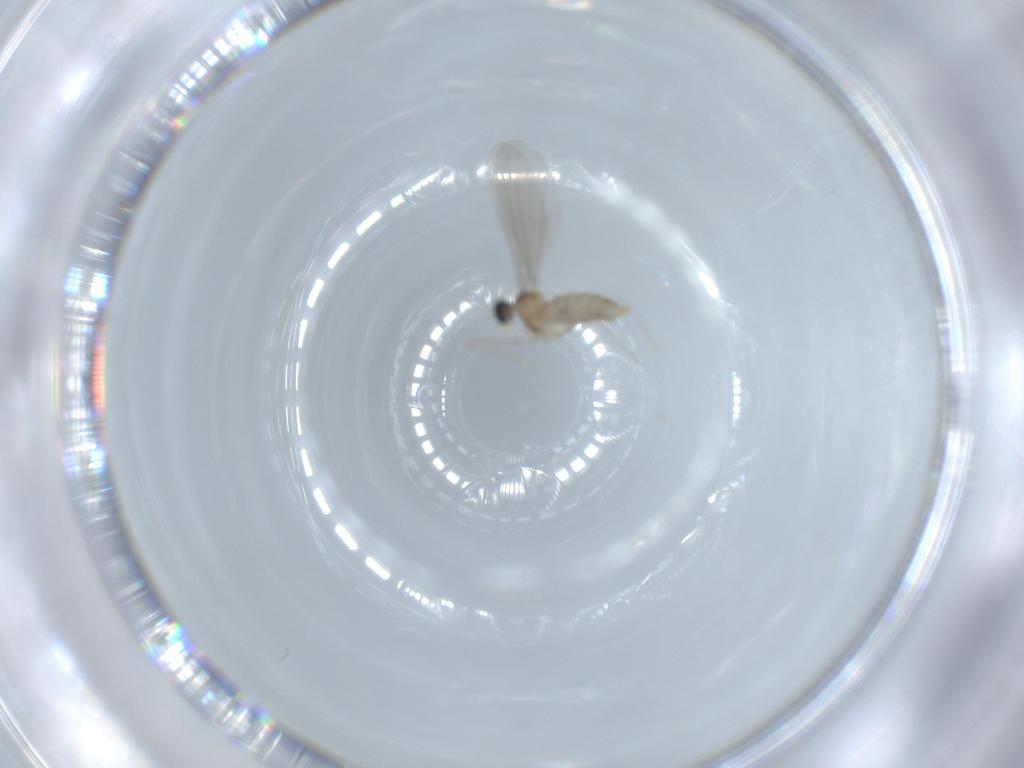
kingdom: Animalia
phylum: Arthropoda
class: Insecta
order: Diptera
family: Cecidomyiidae
